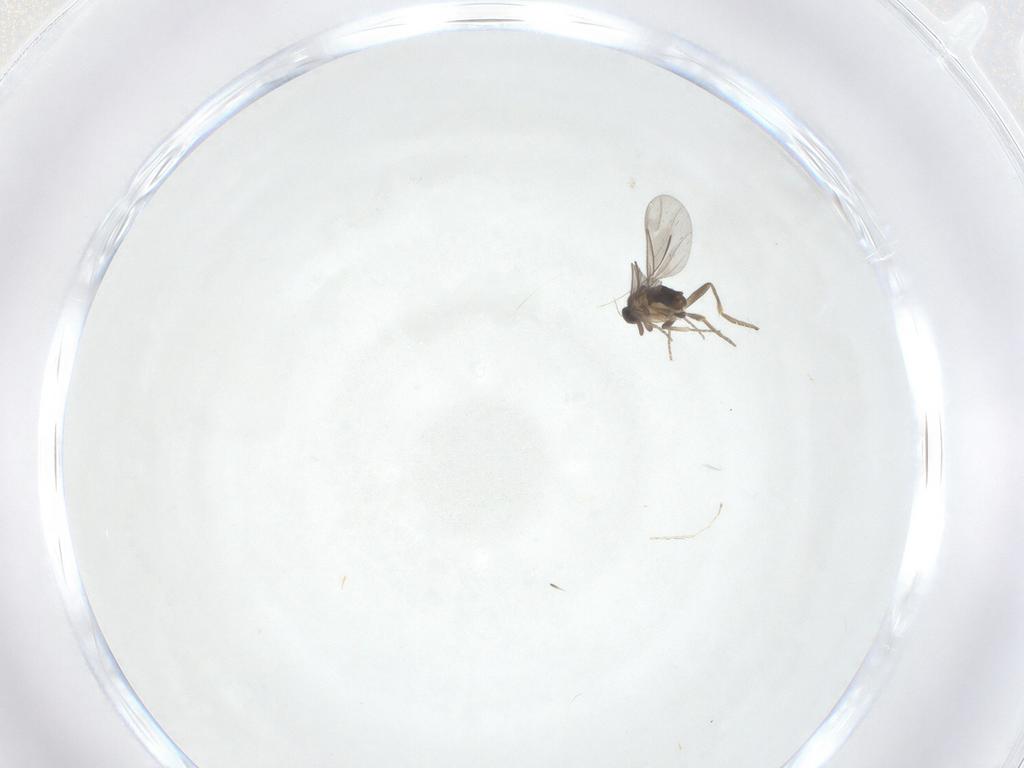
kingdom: Animalia
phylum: Arthropoda
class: Insecta
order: Diptera
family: Cecidomyiidae
